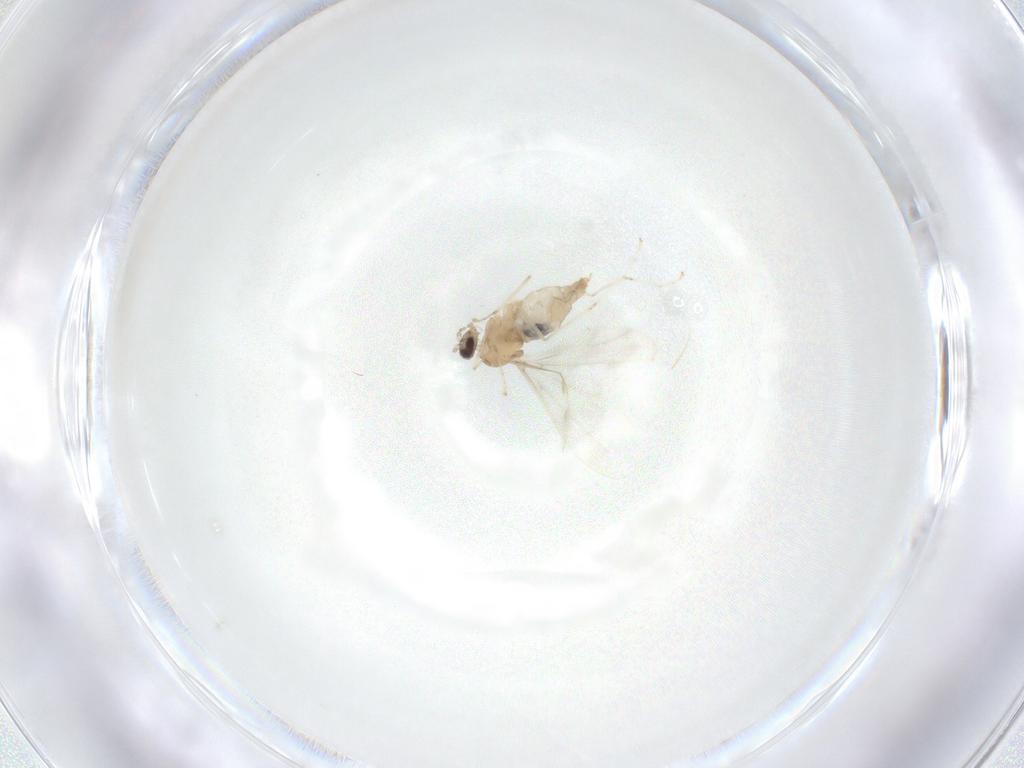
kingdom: Animalia
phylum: Arthropoda
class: Insecta
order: Diptera
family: Cecidomyiidae
